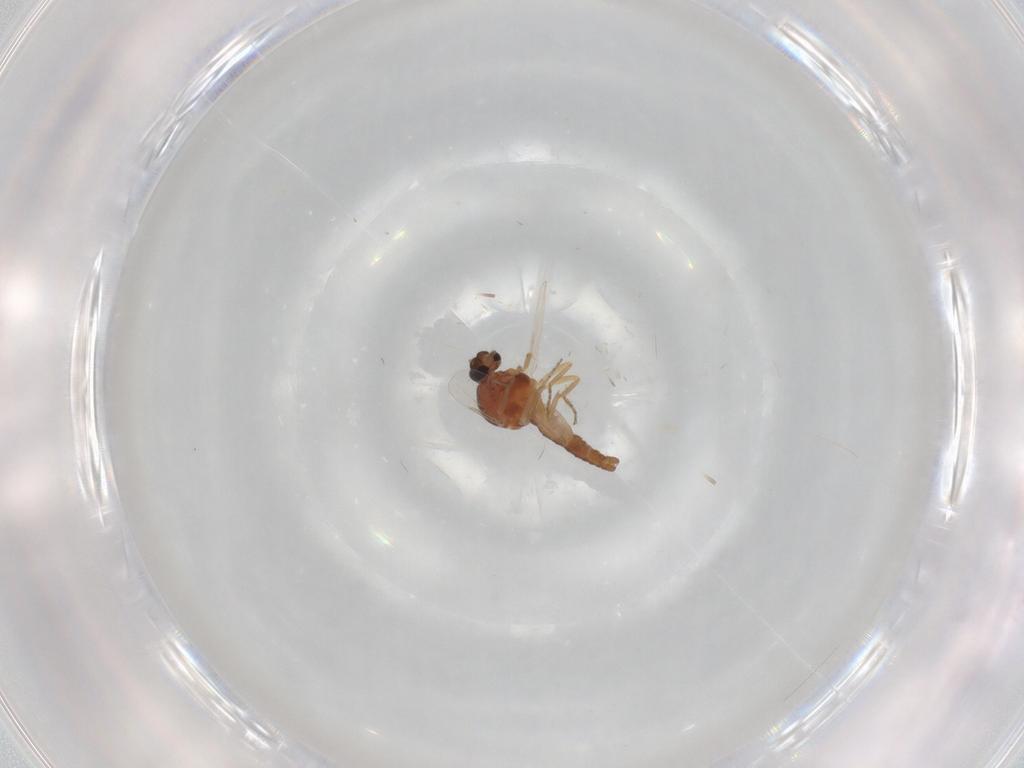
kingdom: Animalia
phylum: Arthropoda
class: Insecta
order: Diptera
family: Ceratopogonidae
